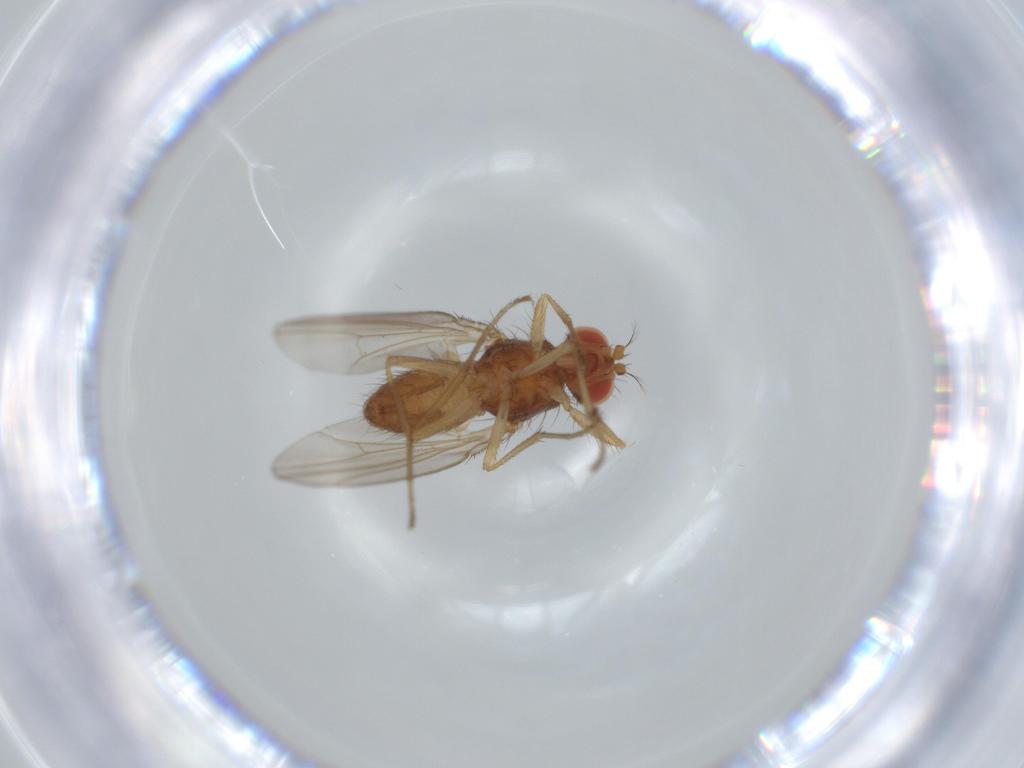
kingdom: Animalia
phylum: Arthropoda
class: Insecta
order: Diptera
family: Drosophilidae
